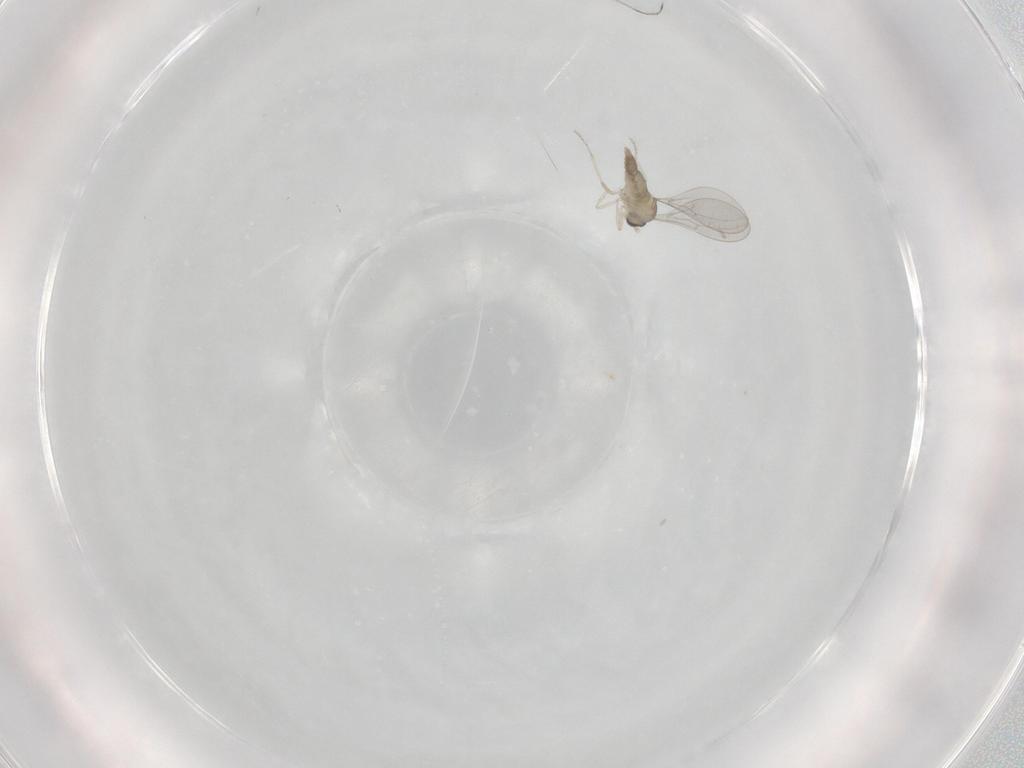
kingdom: Animalia
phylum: Arthropoda
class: Insecta
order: Diptera
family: Cecidomyiidae
